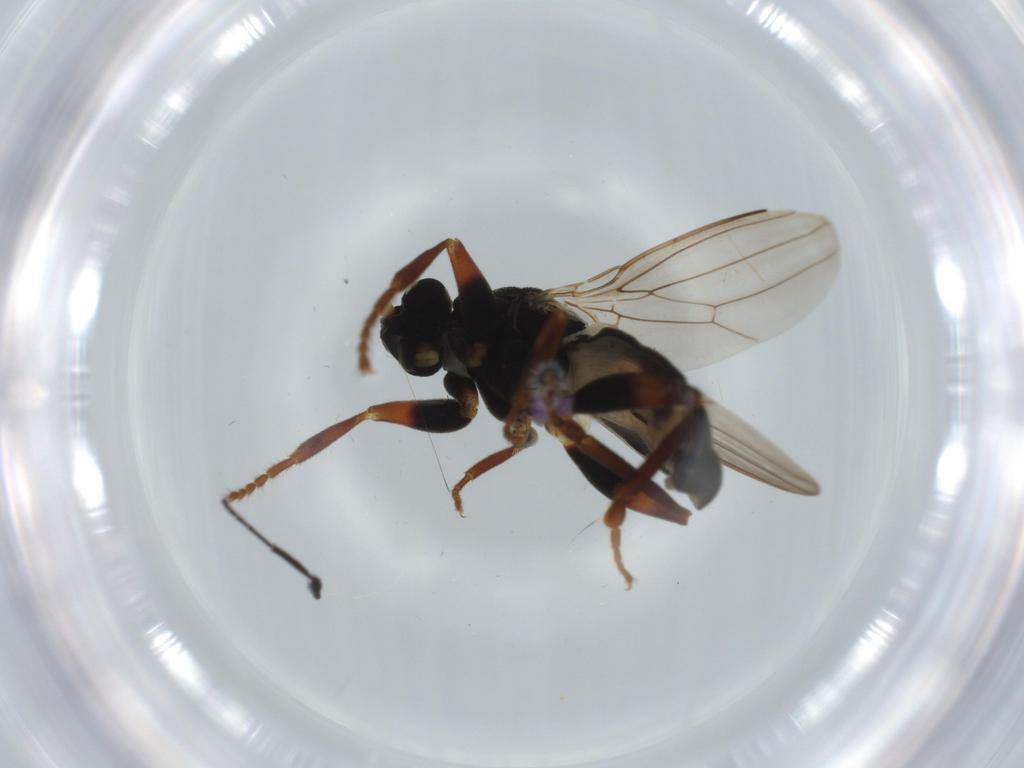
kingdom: Animalia
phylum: Arthropoda
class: Insecta
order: Diptera
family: Sphaeroceridae
